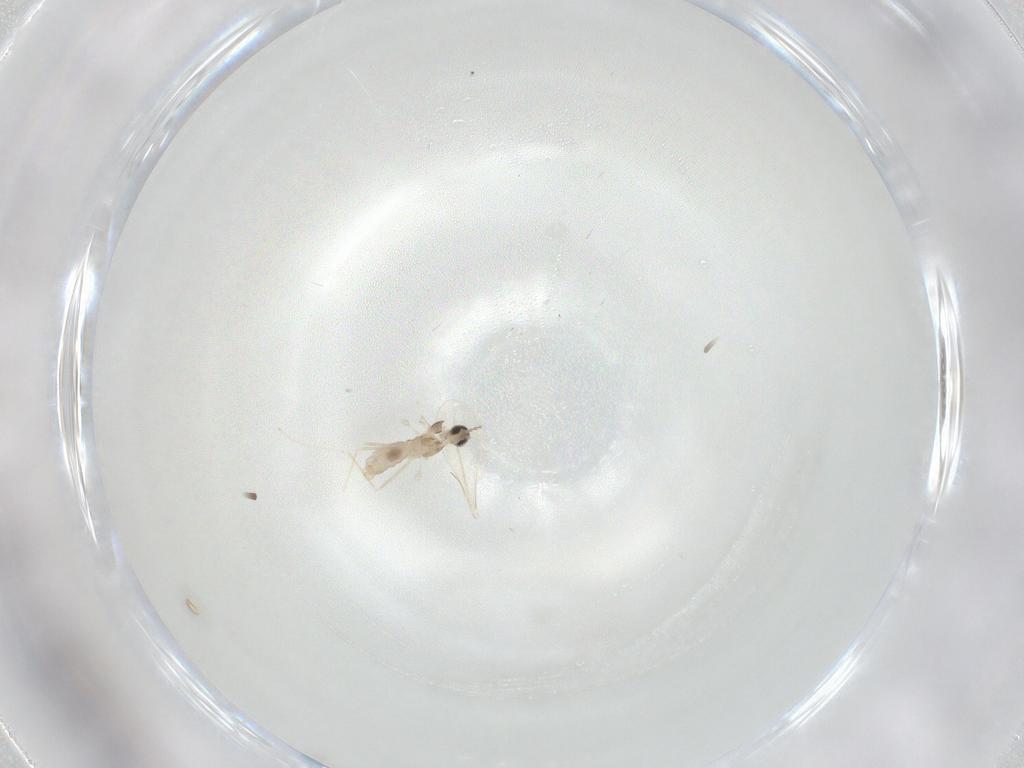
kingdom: Animalia
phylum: Arthropoda
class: Insecta
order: Diptera
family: Cecidomyiidae
